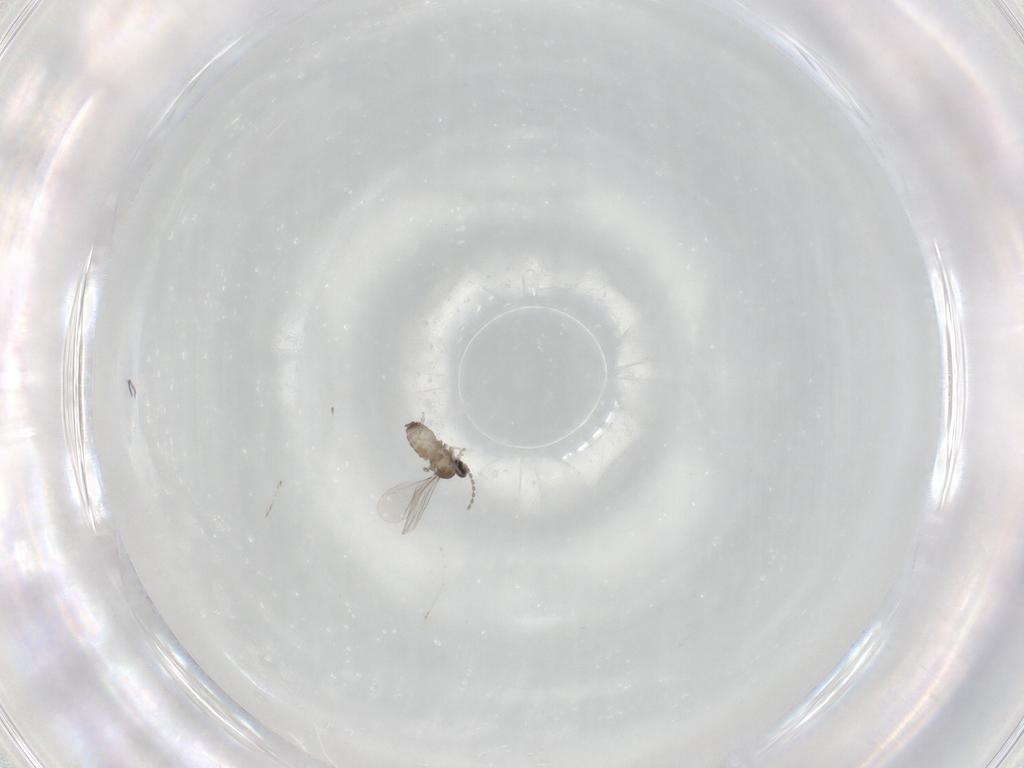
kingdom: Animalia
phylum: Arthropoda
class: Insecta
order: Diptera
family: Cecidomyiidae
